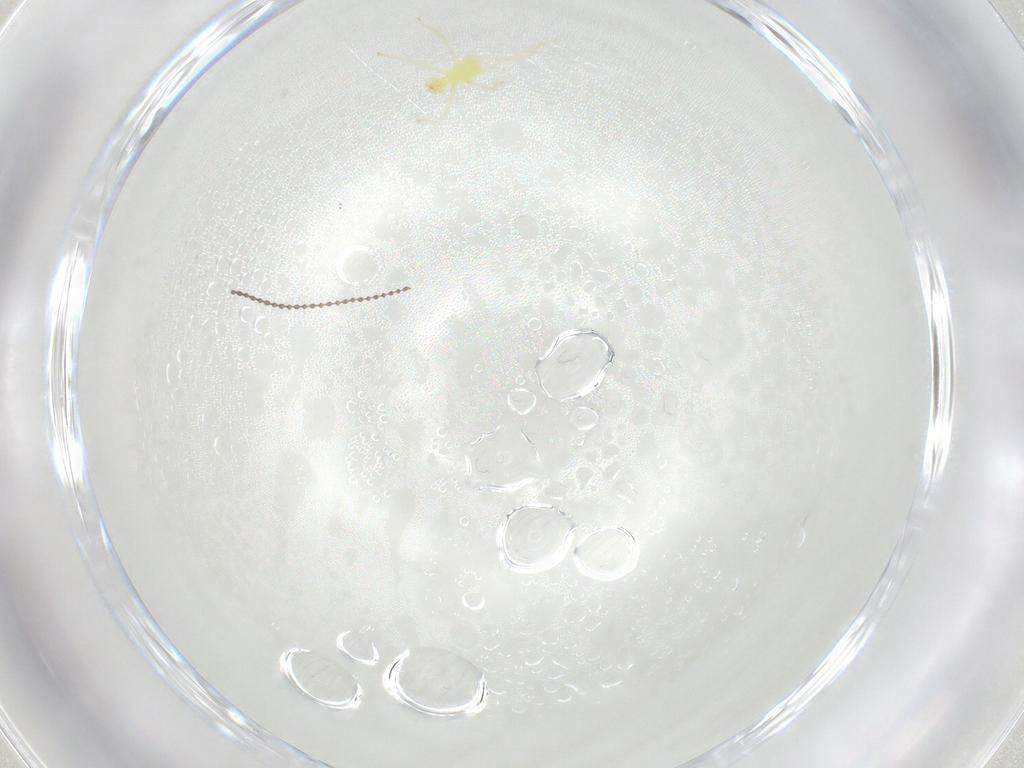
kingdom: Animalia
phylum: Arthropoda
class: Arachnida
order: Trombidiformes
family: Erythraeidae
